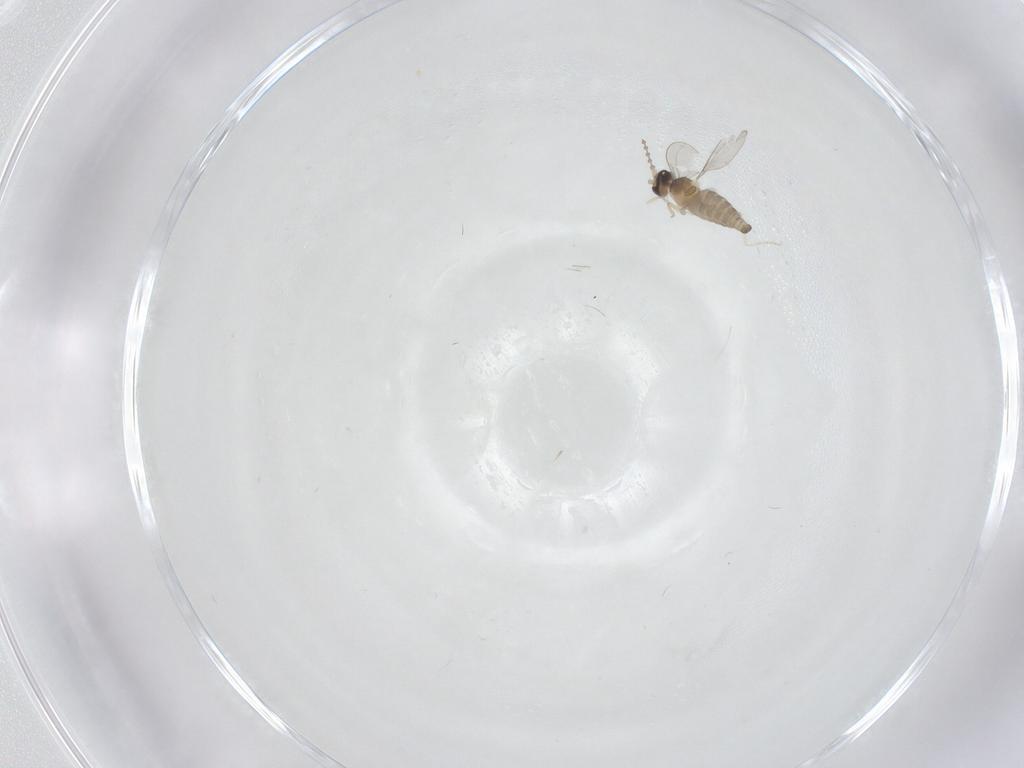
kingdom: Animalia
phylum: Arthropoda
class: Insecta
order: Diptera
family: Cecidomyiidae
